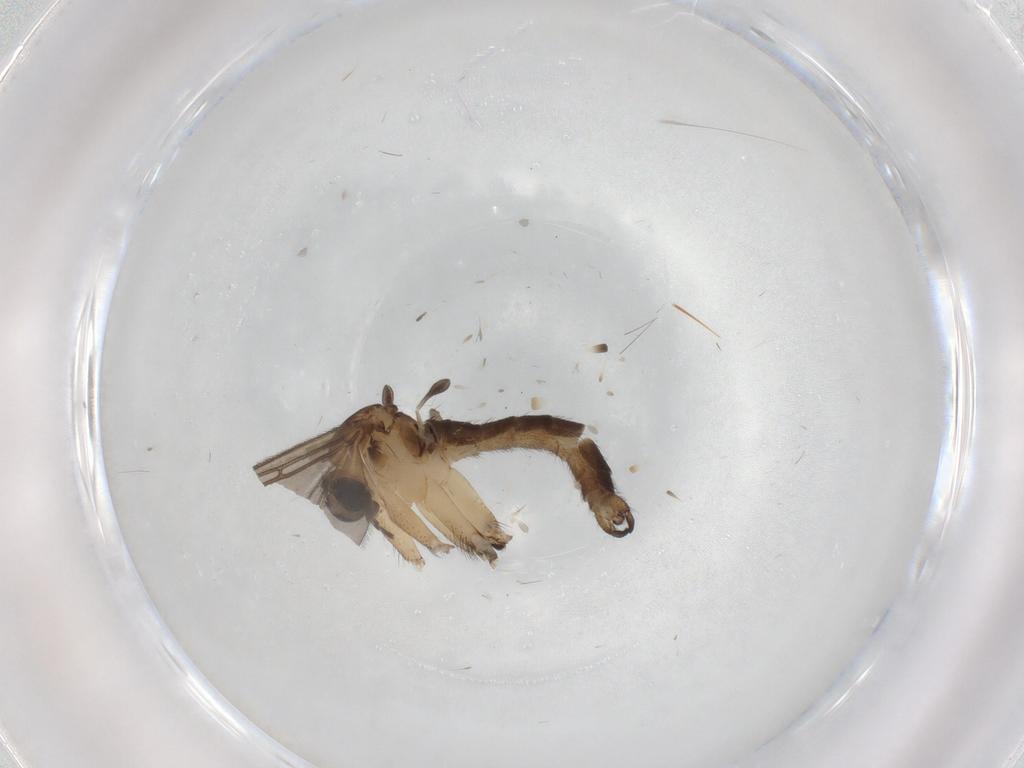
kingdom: Animalia
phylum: Arthropoda
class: Insecta
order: Diptera
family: Sciaridae
